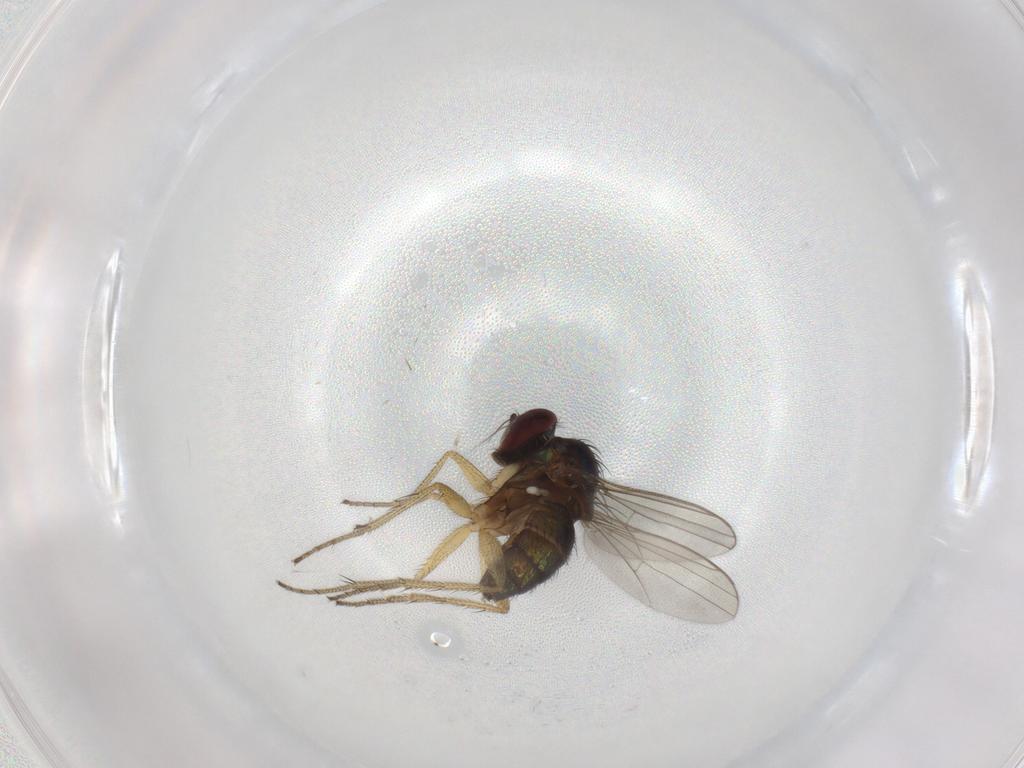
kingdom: Animalia
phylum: Arthropoda
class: Insecta
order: Diptera
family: Dolichopodidae
